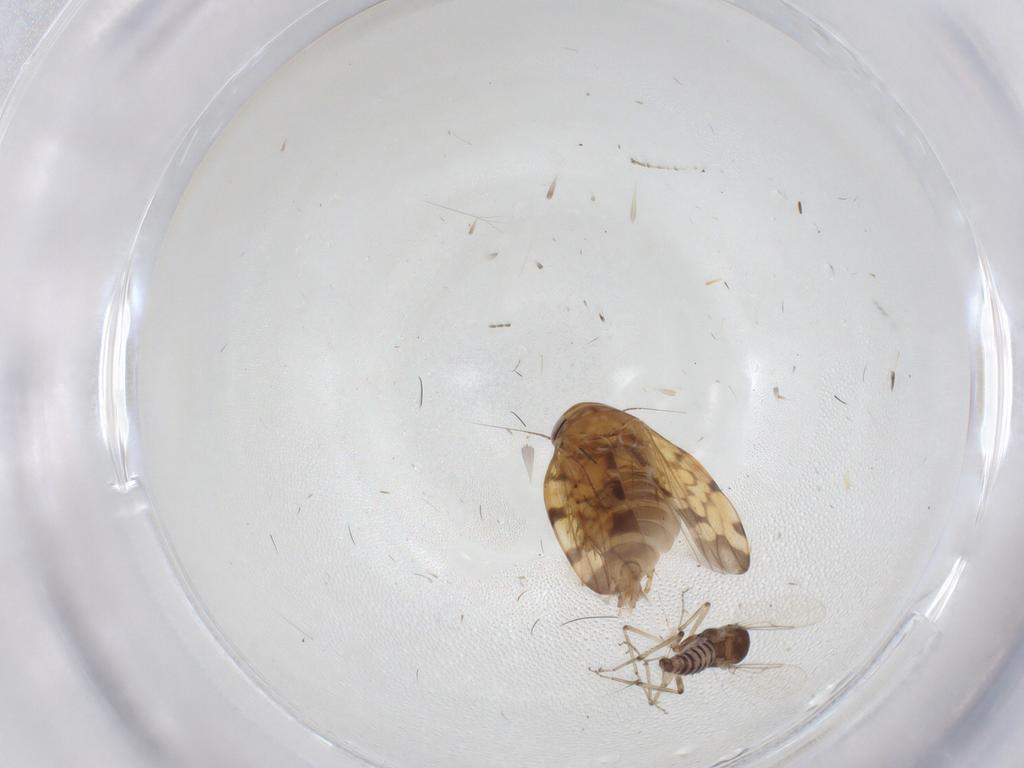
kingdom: Animalia
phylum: Arthropoda
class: Insecta
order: Hemiptera
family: Cicadellidae
